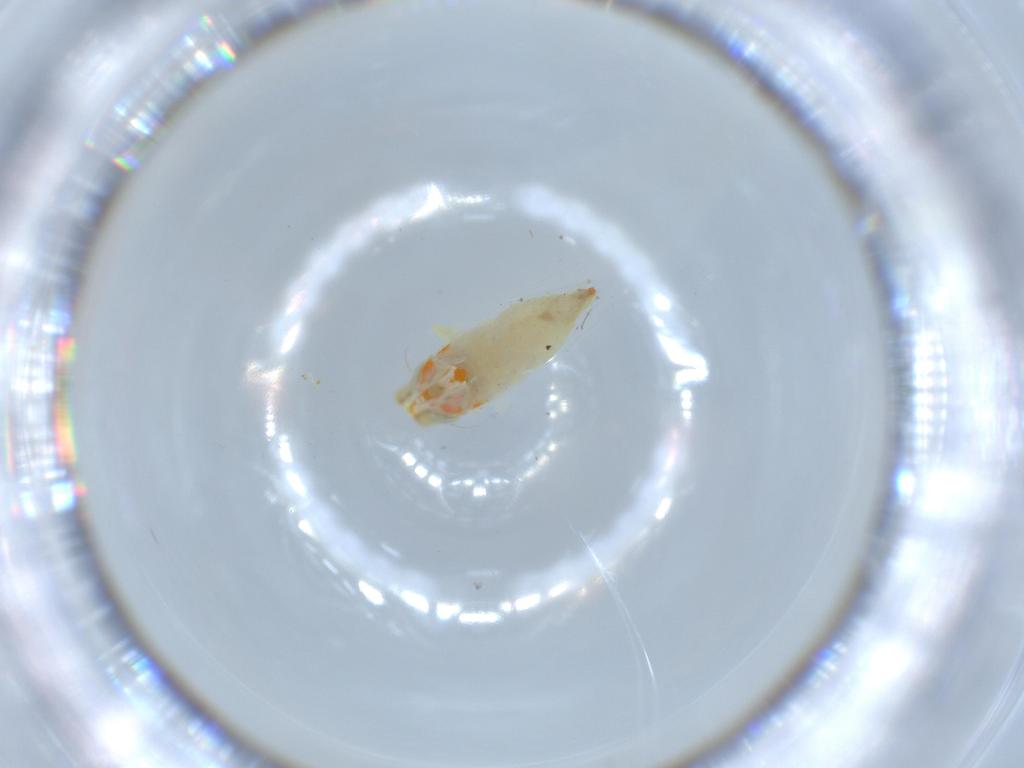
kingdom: Animalia
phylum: Arthropoda
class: Insecta
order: Hemiptera
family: Cicadellidae
